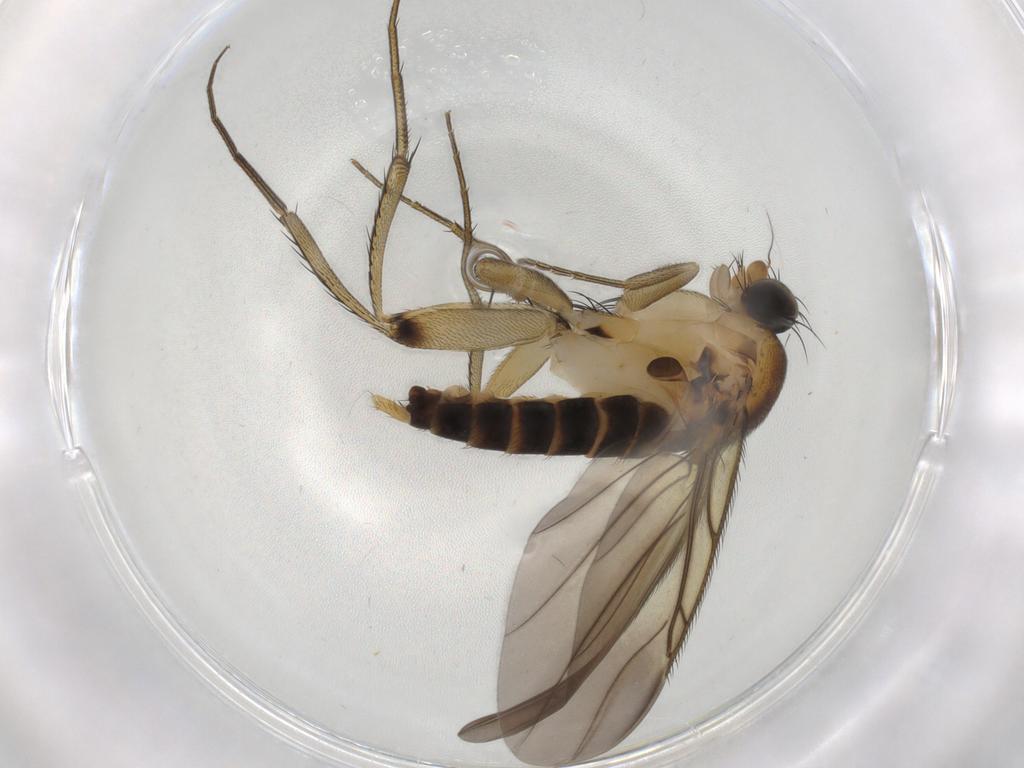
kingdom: Animalia
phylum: Arthropoda
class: Insecta
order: Diptera
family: Phoridae
